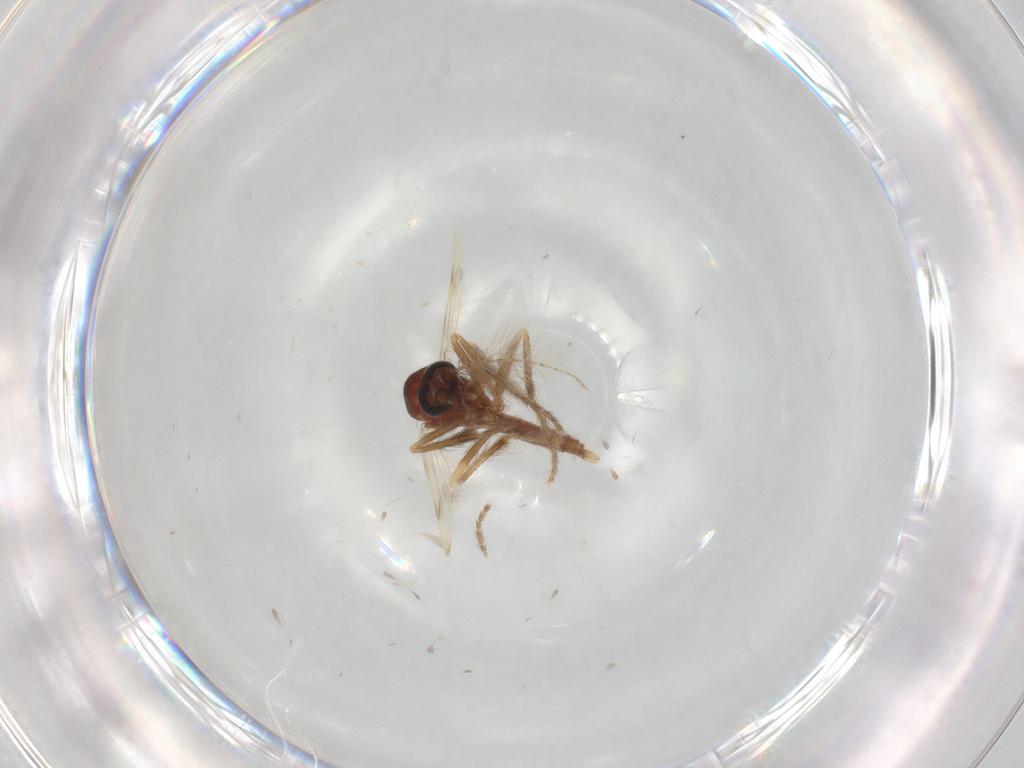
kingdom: Animalia
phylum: Arthropoda
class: Insecta
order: Diptera
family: Corethrellidae
